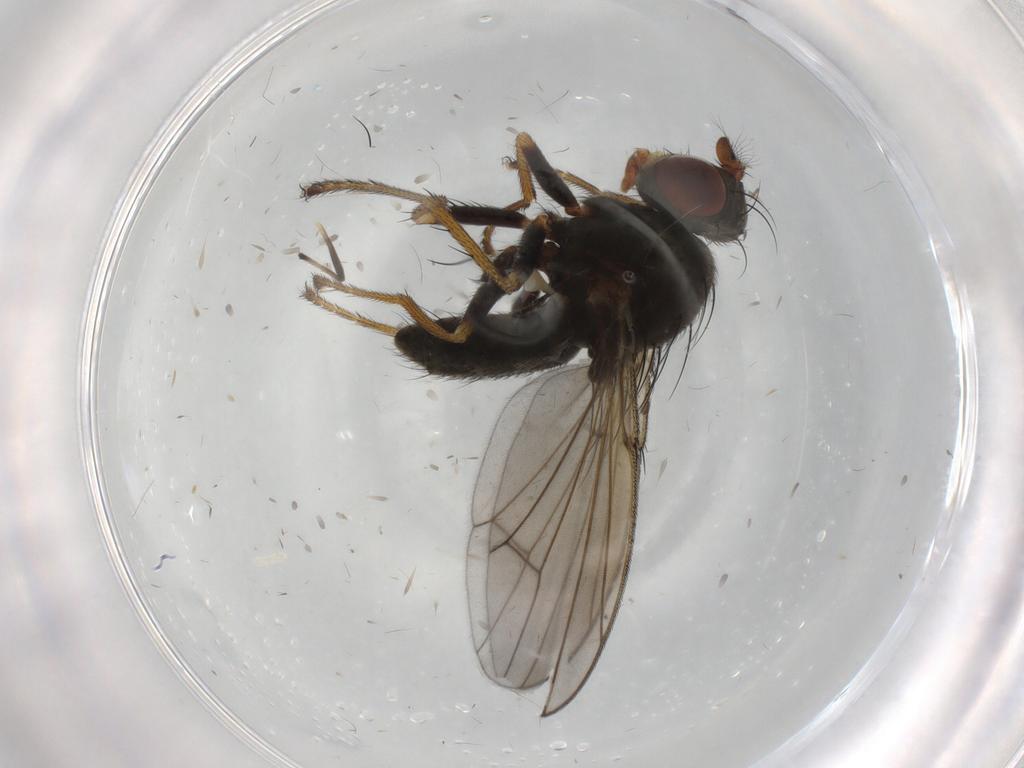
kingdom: Animalia
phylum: Arthropoda
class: Insecta
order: Diptera
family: Chironomidae
